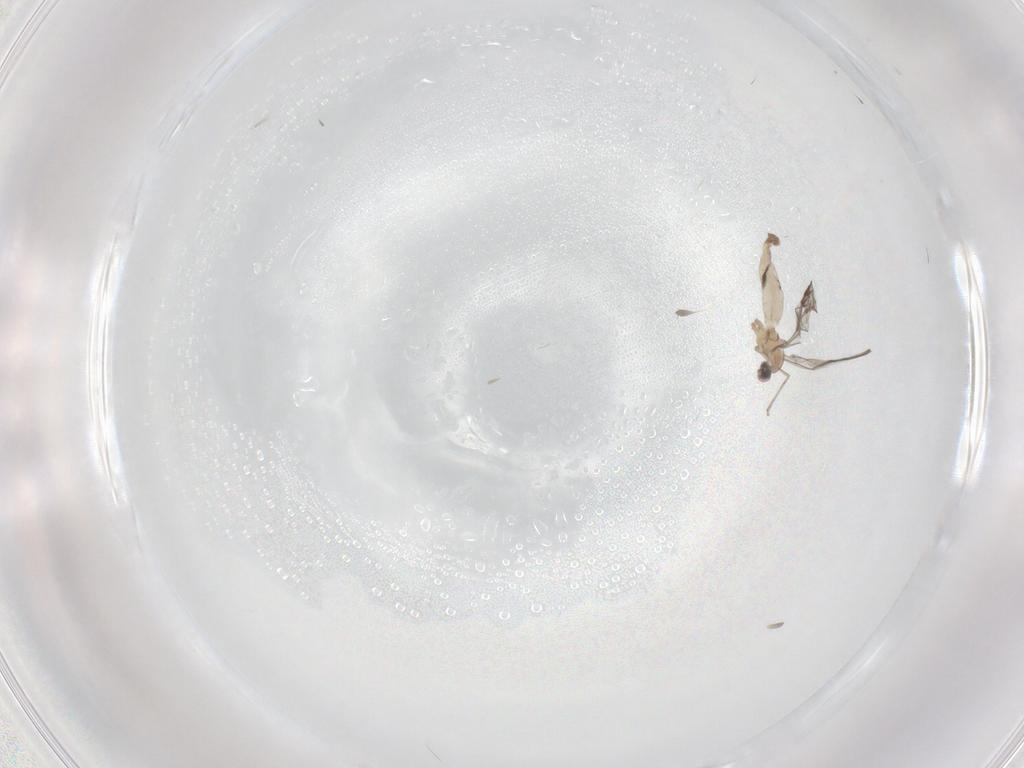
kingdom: Animalia
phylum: Arthropoda
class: Insecta
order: Diptera
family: Cecidomyiidae
